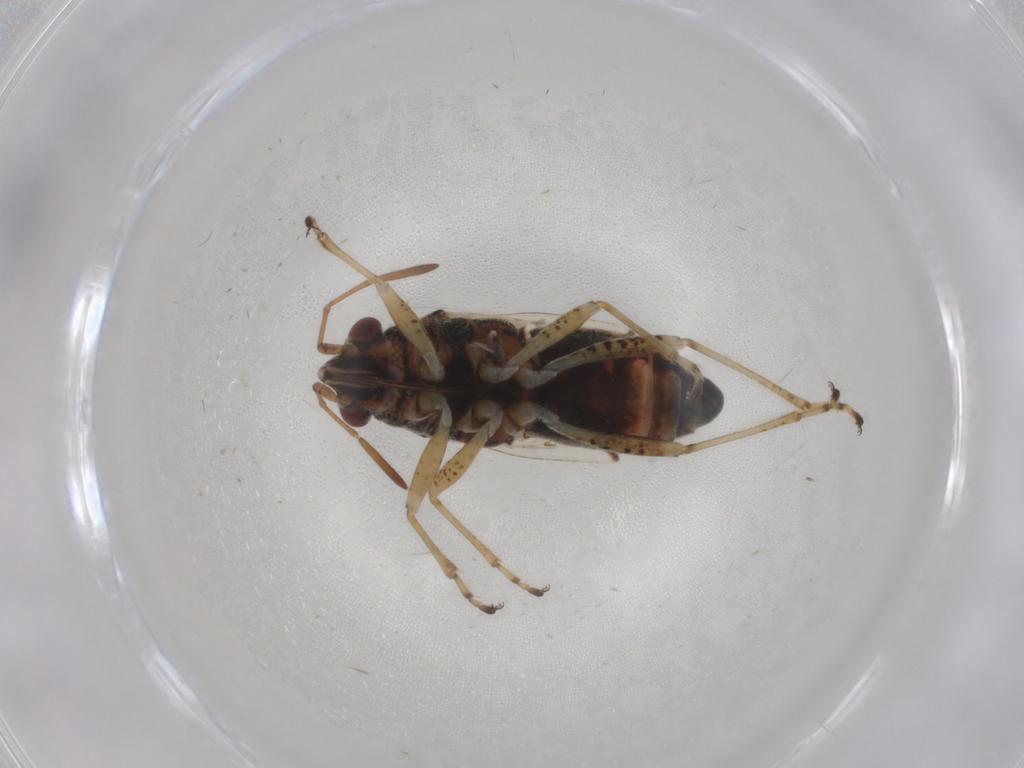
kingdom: Animalia
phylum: Arthropoda
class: Insecta
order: Hemiptera
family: Lygaeidae
